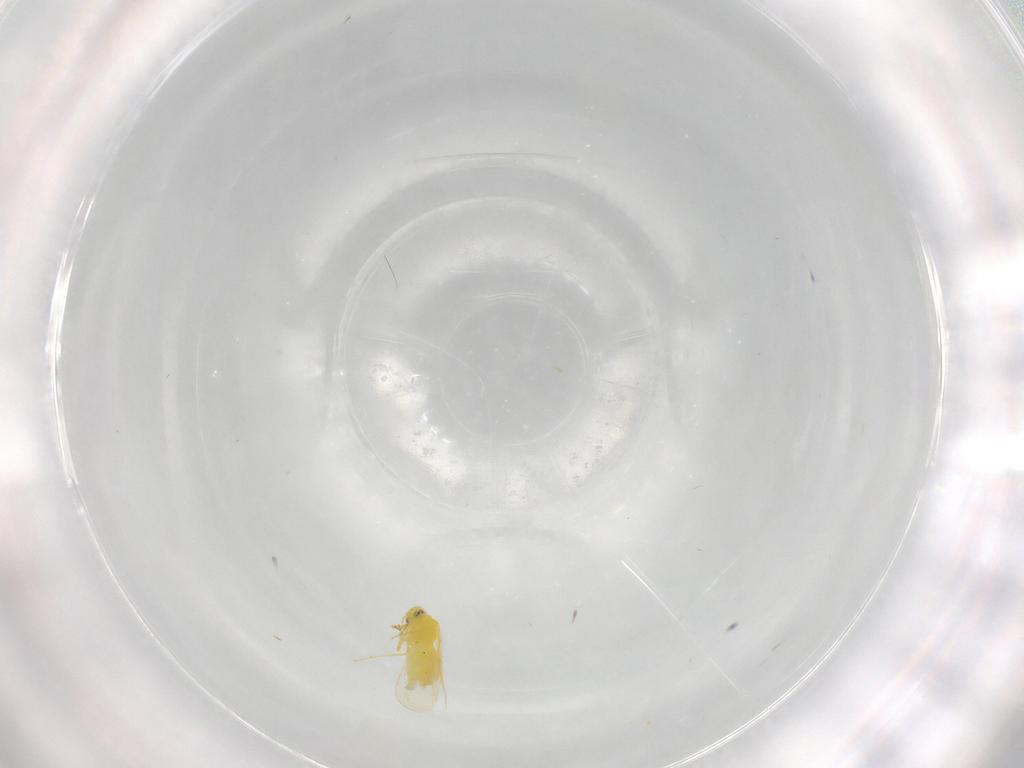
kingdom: Animalia
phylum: Arthropoda
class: Insecta
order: Hemiptera
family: Aleyrodidae
